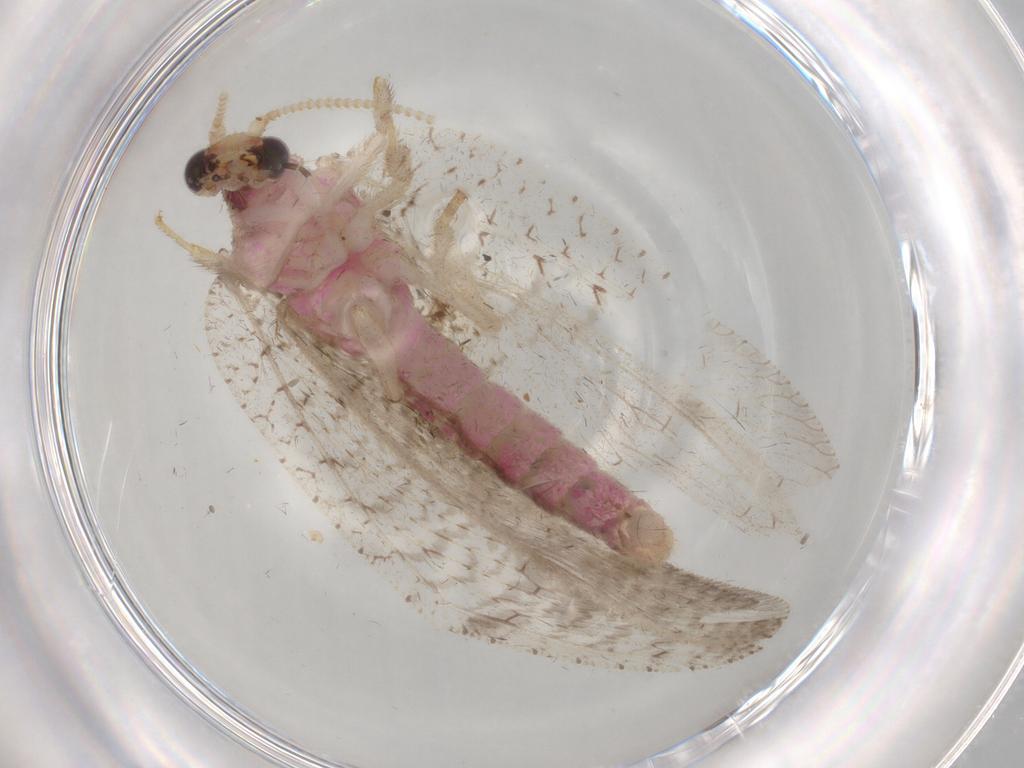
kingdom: Animalia
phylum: Arthropoda
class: Insecta
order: Neuroptera
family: Hemerobiidae
